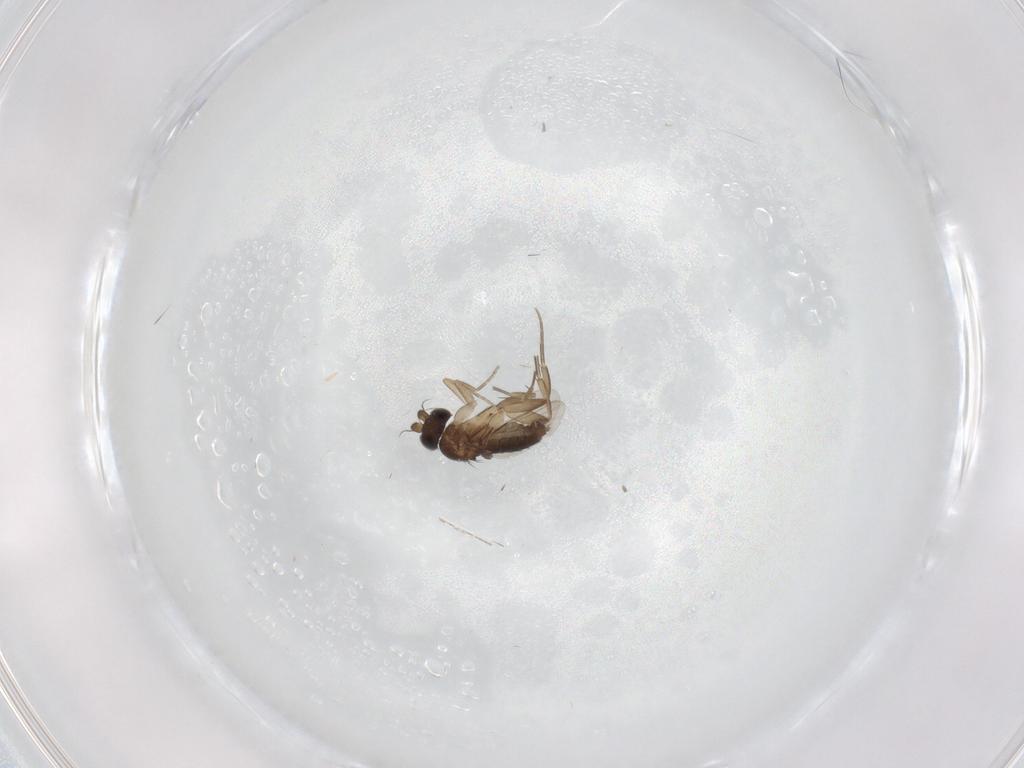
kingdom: Animalia
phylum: Arthropoda
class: Insecta
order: Diptera
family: Phoridae
